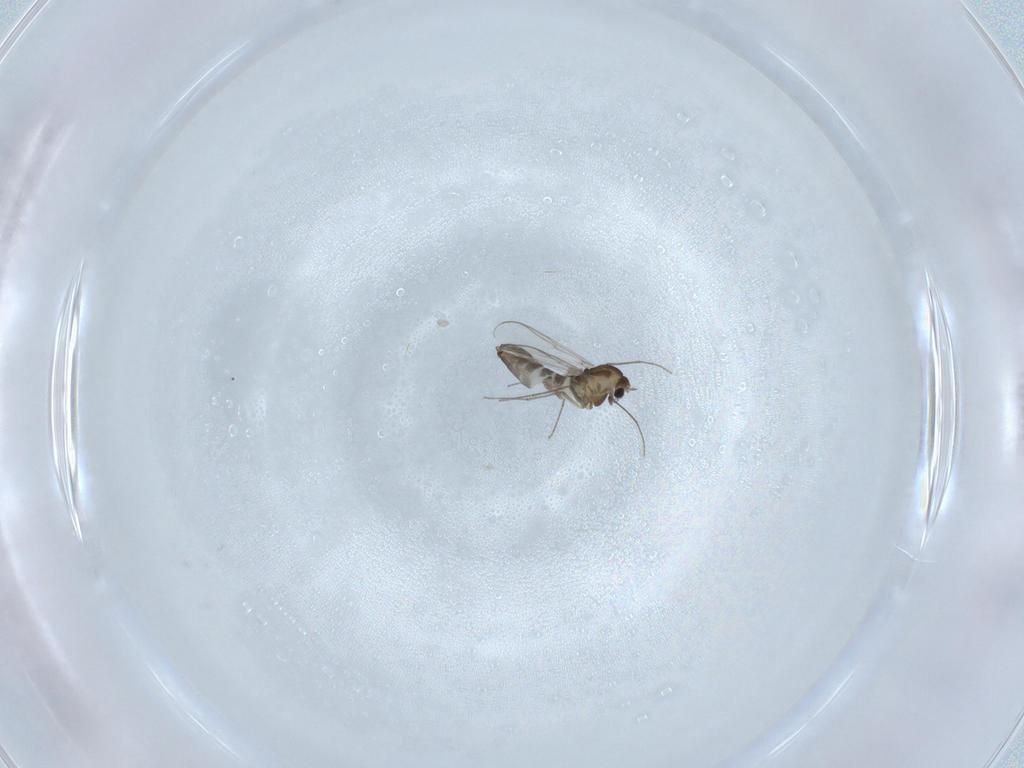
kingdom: Animalia
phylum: Arthropoda
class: Insecta
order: Diptera
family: Chironomidae
